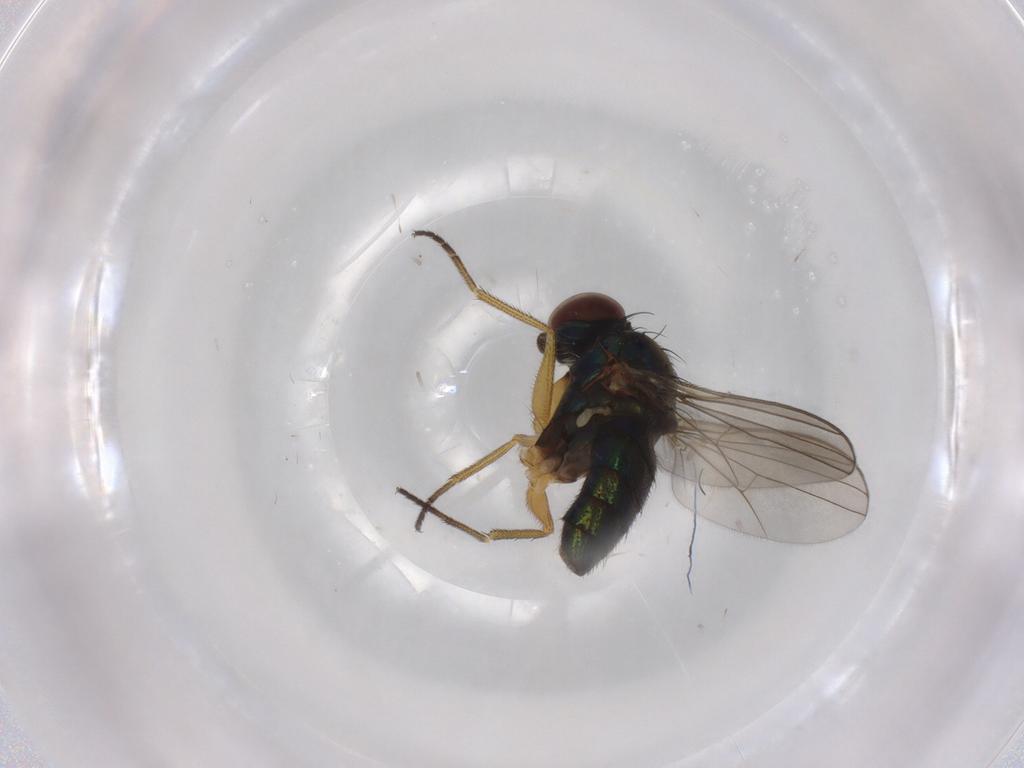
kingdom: Animalia
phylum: Arthropoda
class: Insecta
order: Diptera
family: Dolichopodidae
